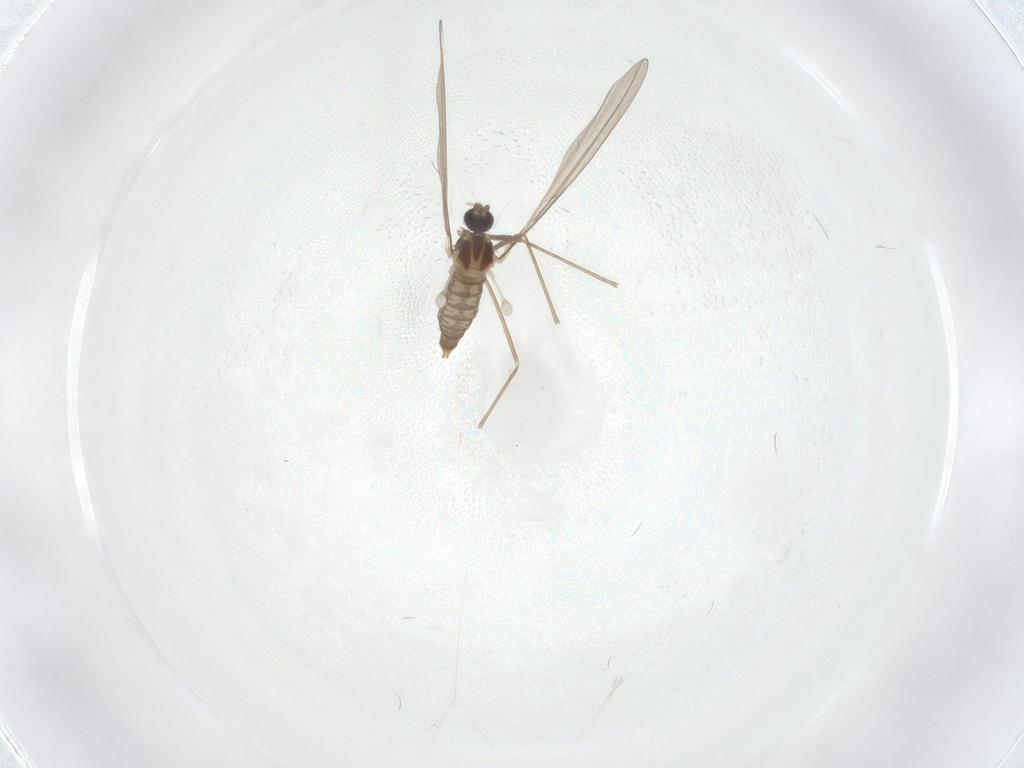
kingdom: Animalia
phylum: Arthropoda
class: Insecta
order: Diptera
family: Cecidomyiidae
